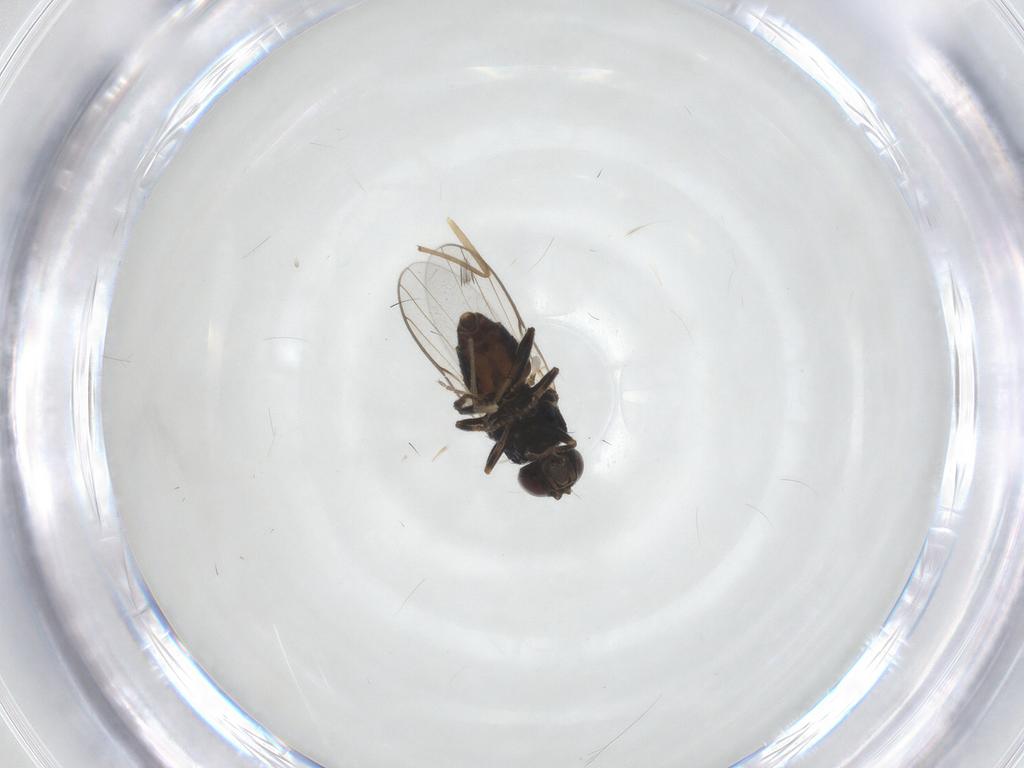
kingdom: Animalia
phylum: Arthropoda
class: Insecta
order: Diptera
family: Chloropidae
